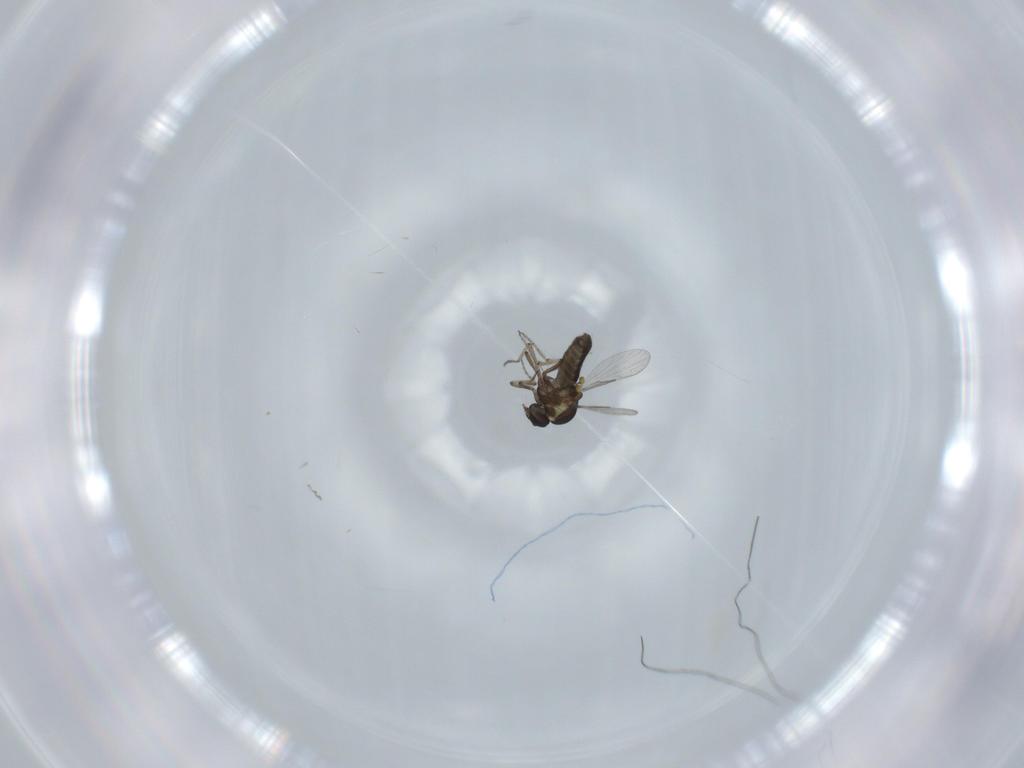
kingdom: Animalia
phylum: Arthropoda
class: Insecta
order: Diptera
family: Ceratopogonidae
